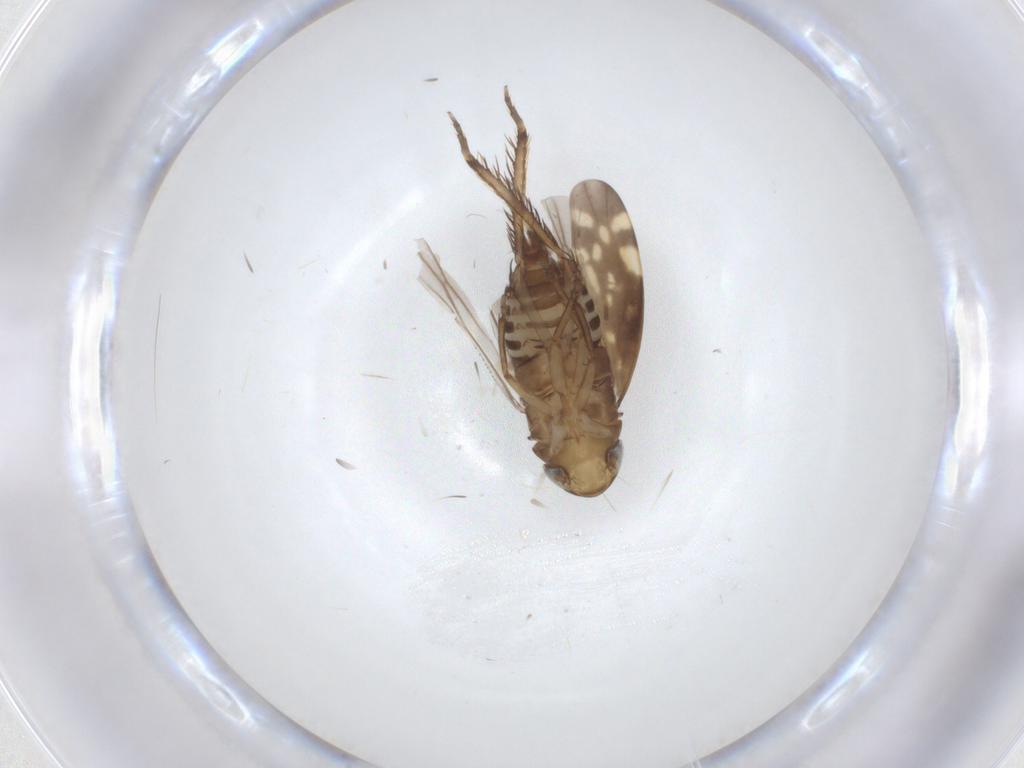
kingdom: Animalia
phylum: Arthropoda
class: Insecta
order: Hemiptera
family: Cicadellidae
